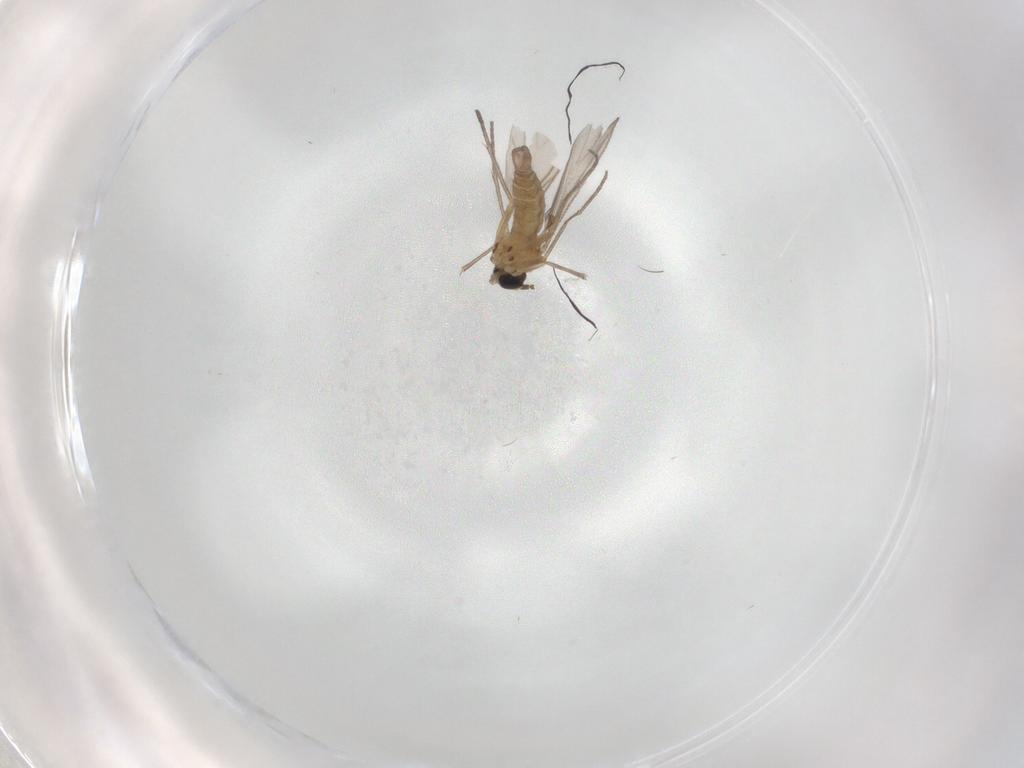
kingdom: Animalia
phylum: Arthropoda
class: Insecta
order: Diptera
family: Sciaridae
